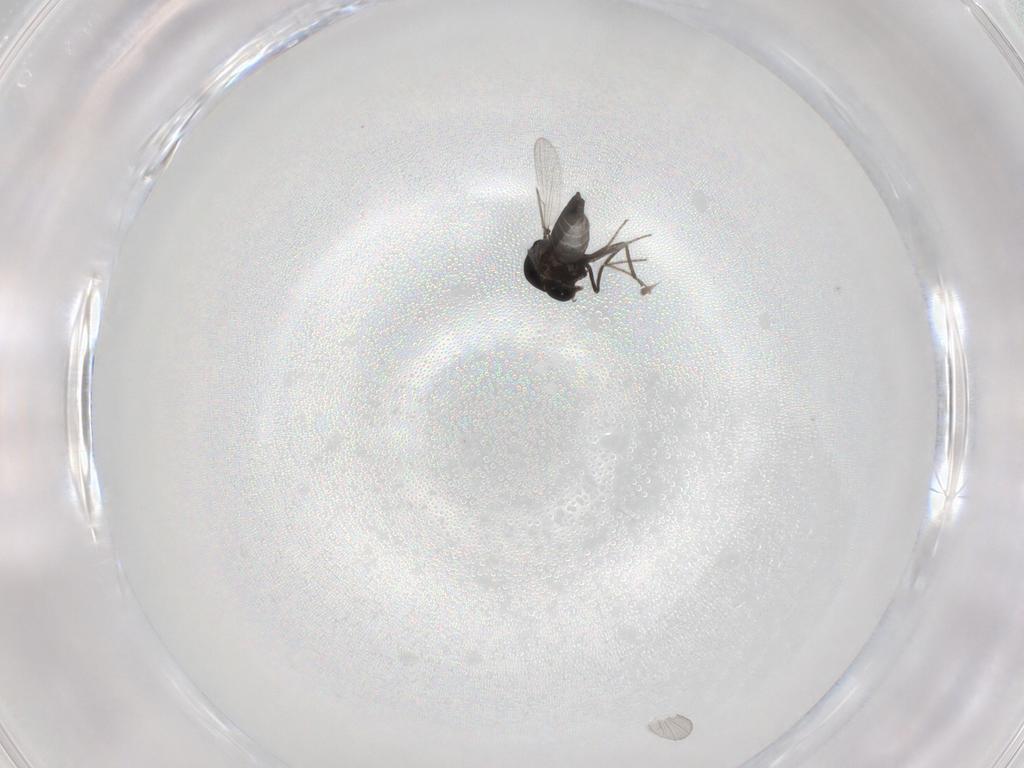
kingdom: Animalia
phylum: Arthropoda
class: Insecta
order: Diptera
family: Ceratopogonidae
